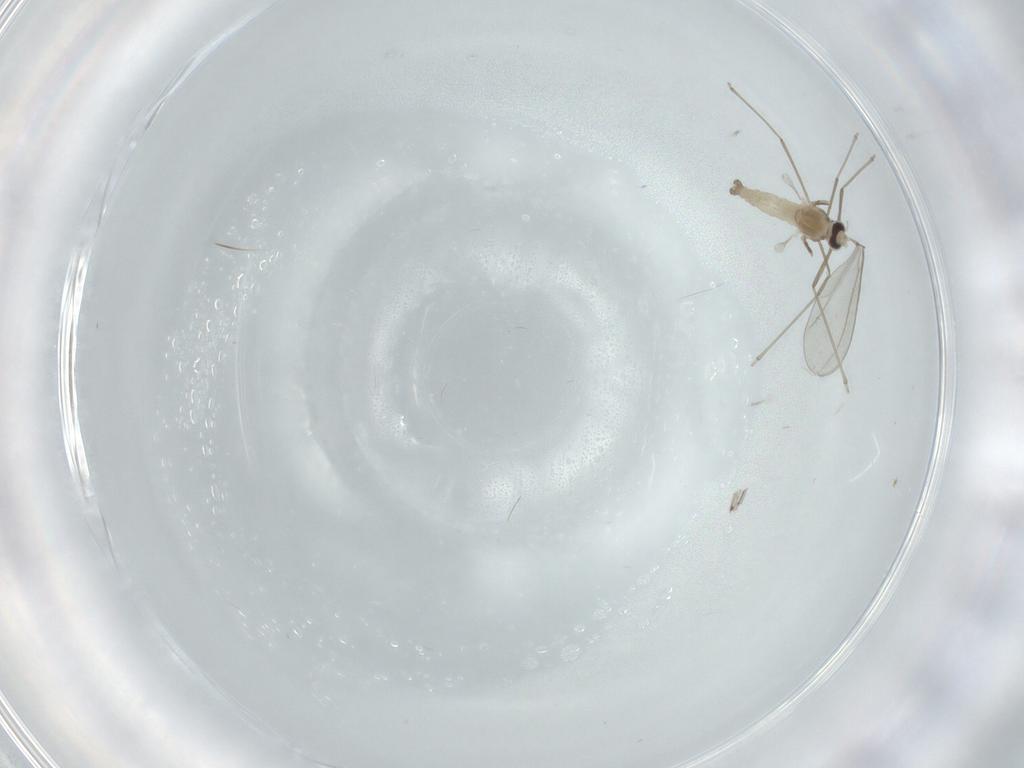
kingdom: Animalia
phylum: Arthropoda
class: Insecta
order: Diptera
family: Cecidomyiidae
